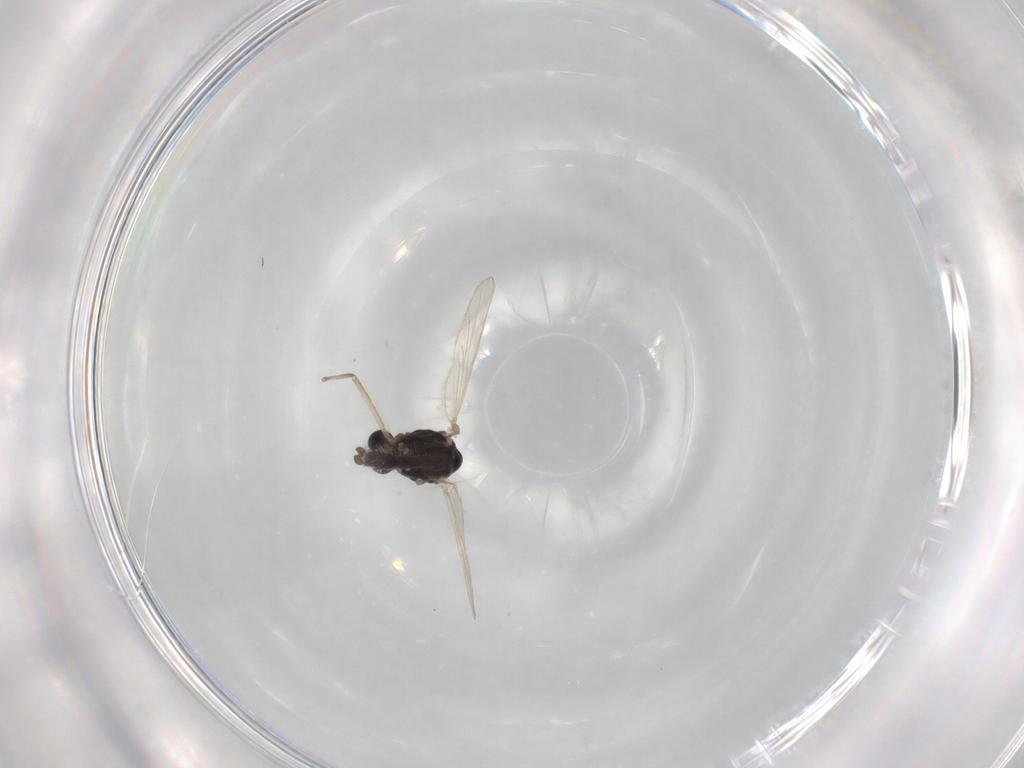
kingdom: Animalia
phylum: Arthropoda
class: Insecta
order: Diptera
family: Chironomidae
